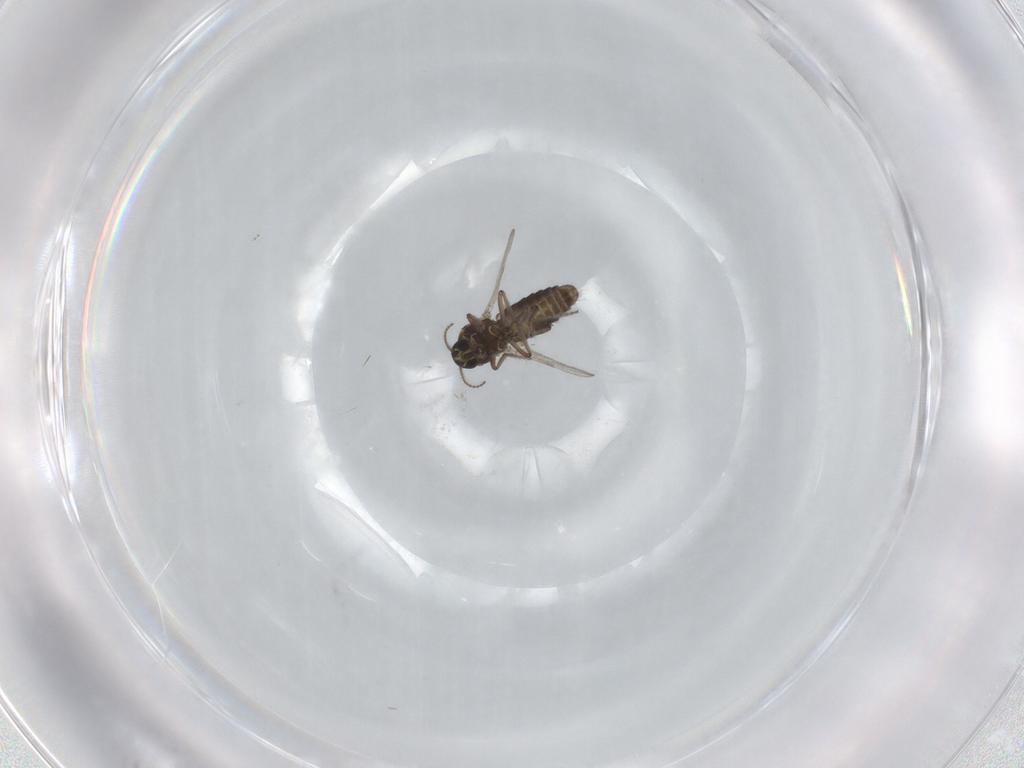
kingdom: Animalia
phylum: Arthropoda
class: Insecta
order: Diptera
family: Ceratopogonidae
